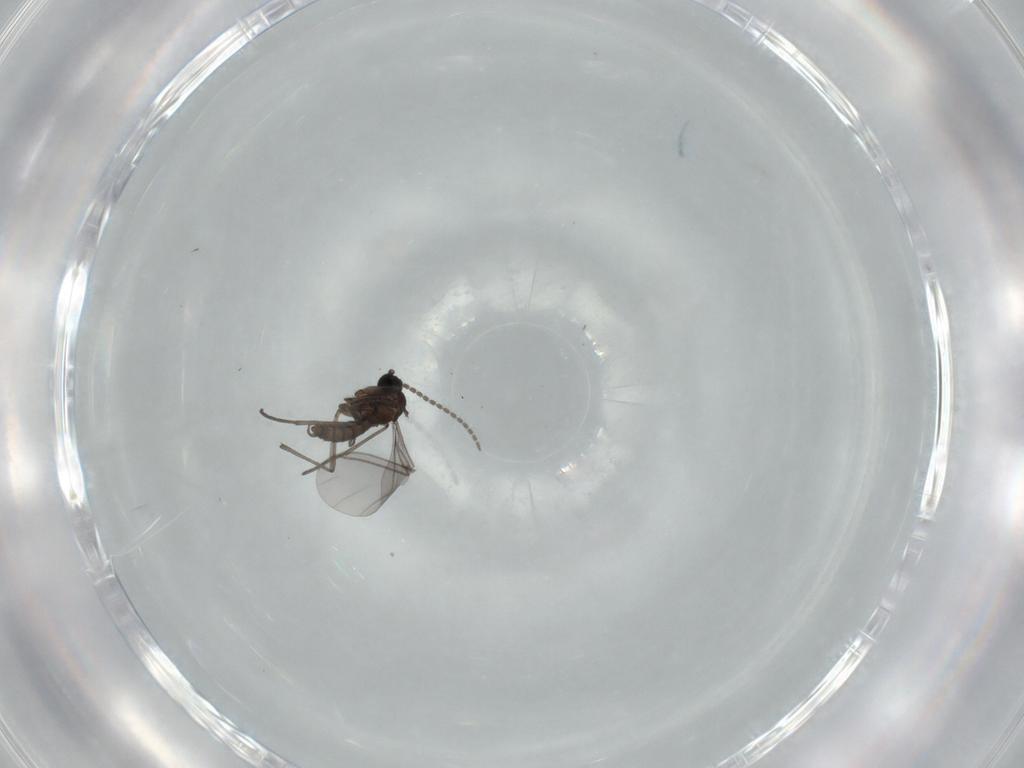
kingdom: Animalia
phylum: Arthropoda
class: Insecta
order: Diptera
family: Sciaridae
